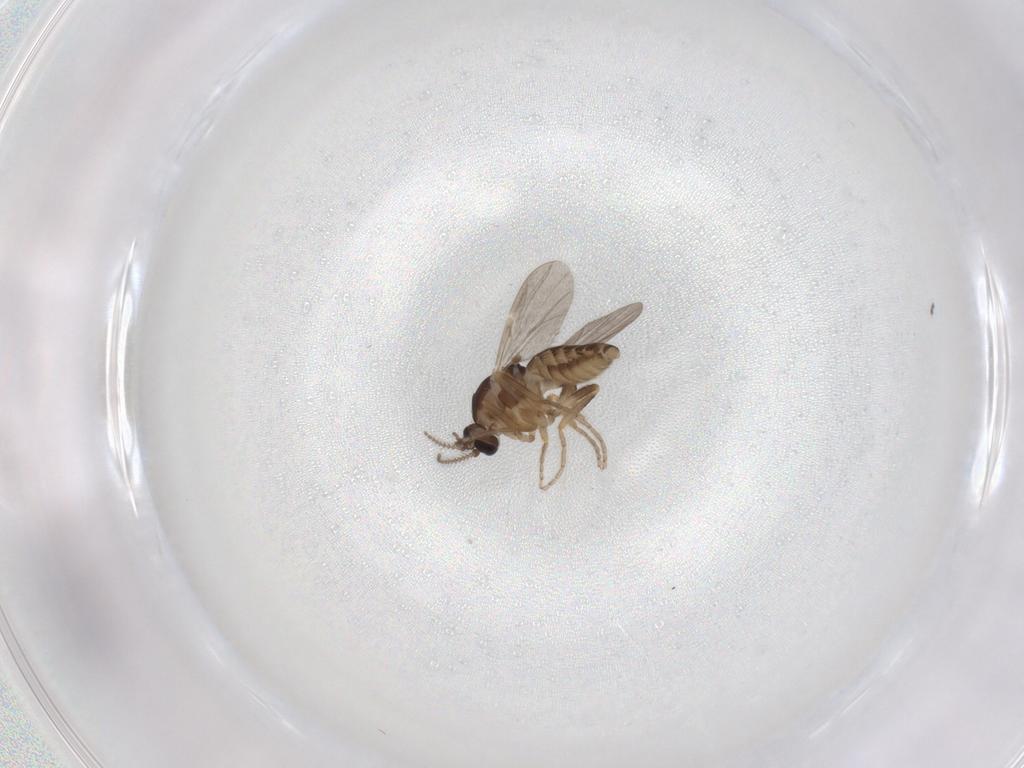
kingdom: Animalia
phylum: Arthropoda
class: Insecta
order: Diptera
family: Ceratopogonidae
